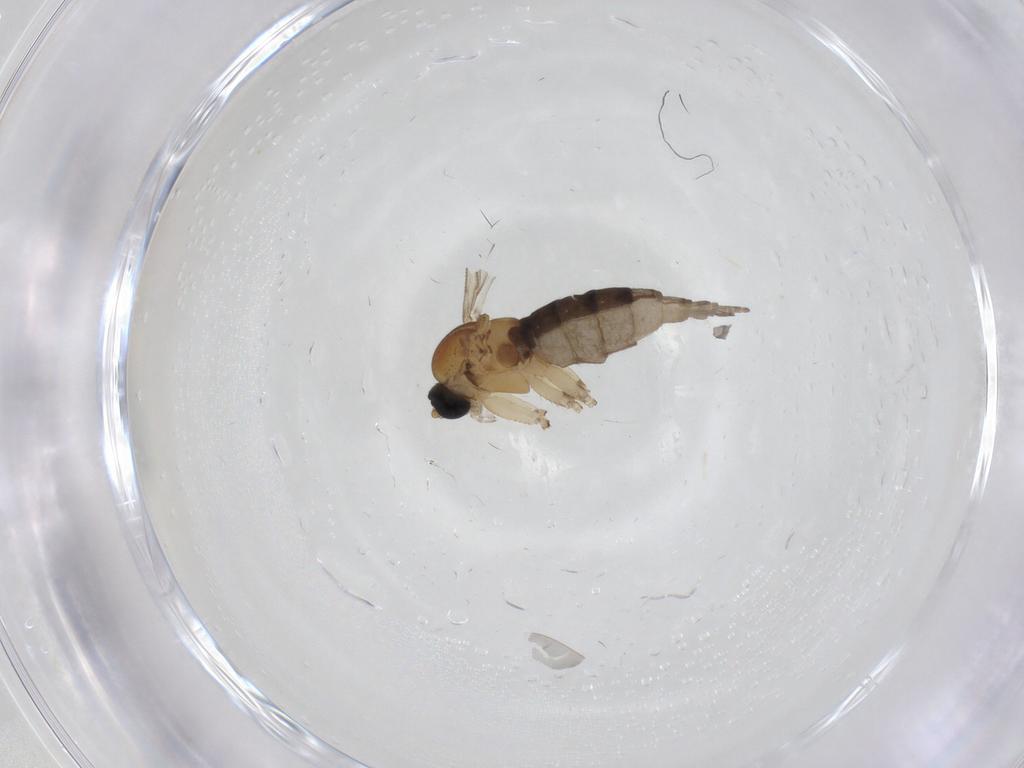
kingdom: Animalia
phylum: Arthropoda
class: Insecta
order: Diptera
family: Sciaridae
